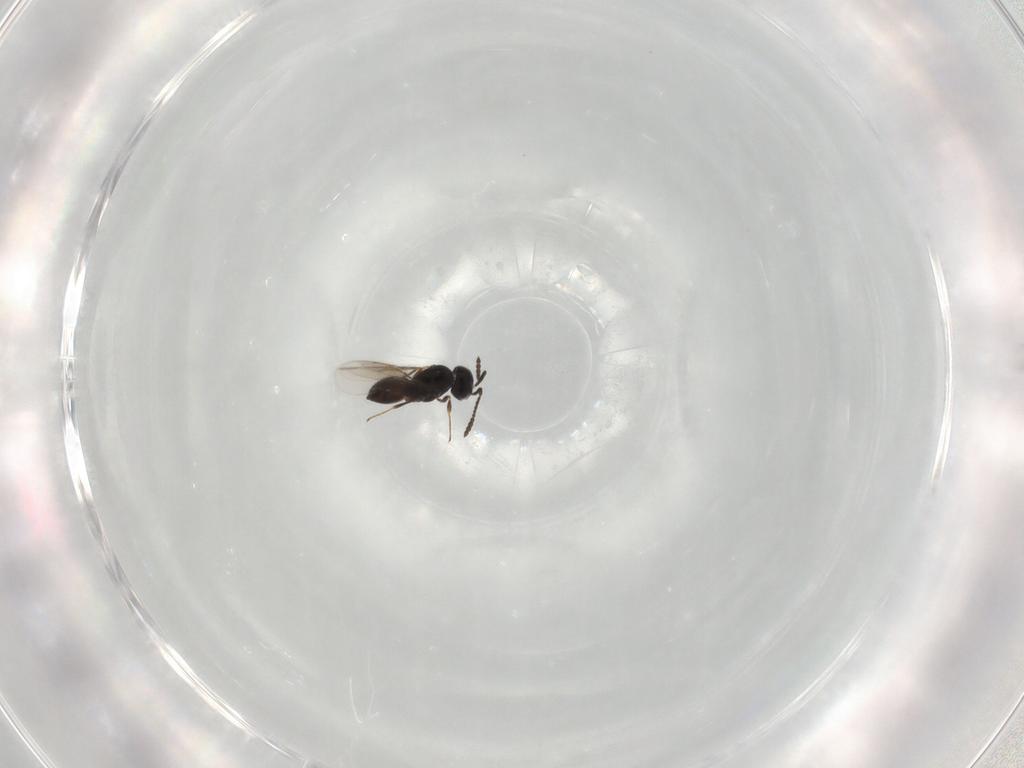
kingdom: Animalia
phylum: Arthropoda
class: Insecta
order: Hymenoptera
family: Scelionidae
